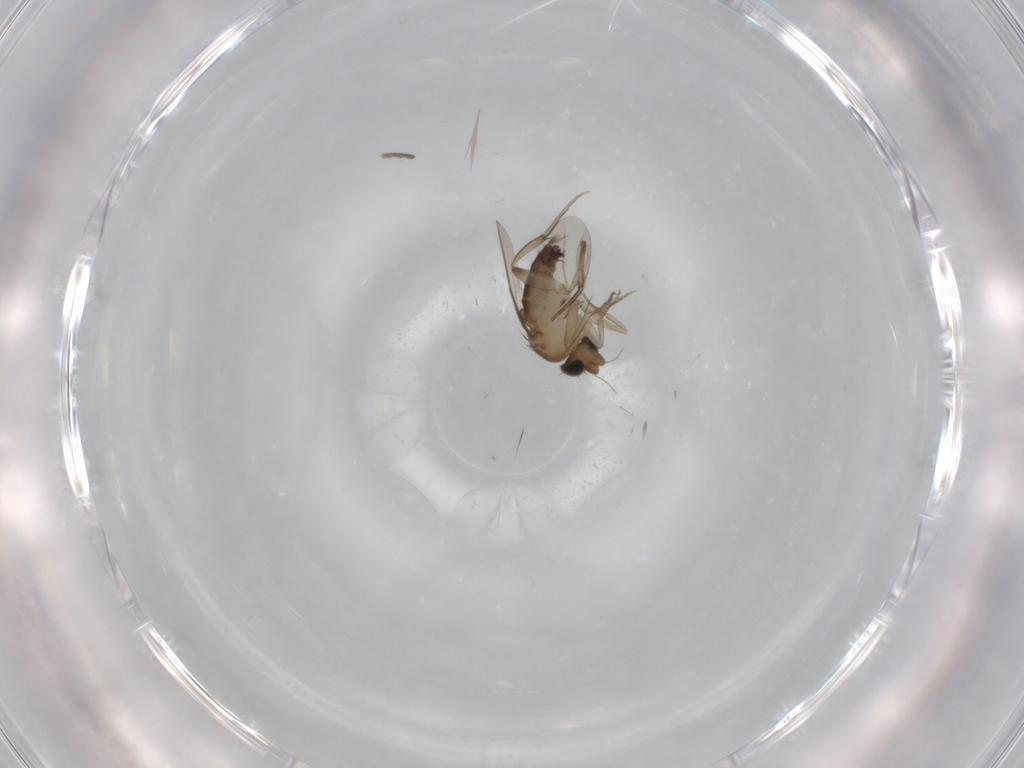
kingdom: Animalia
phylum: Arthropoda
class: Insecta
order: Diptera
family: Phoridae
